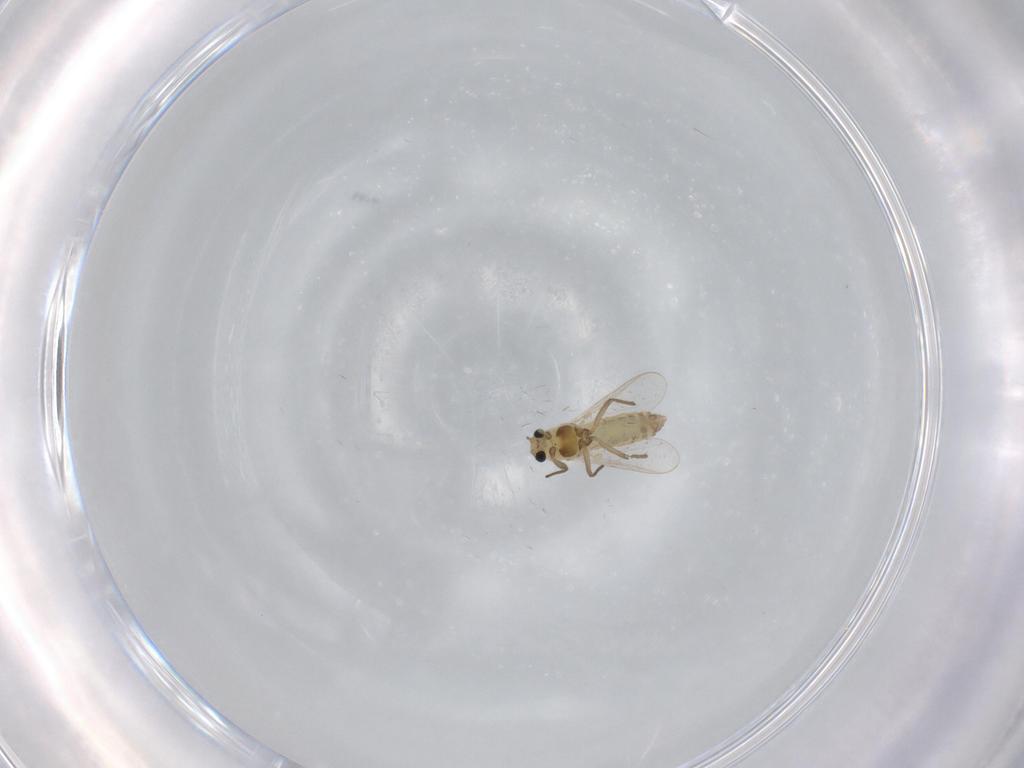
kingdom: Animalia
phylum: Arthropoda
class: Insecta
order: Diptera
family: Chironomidae
